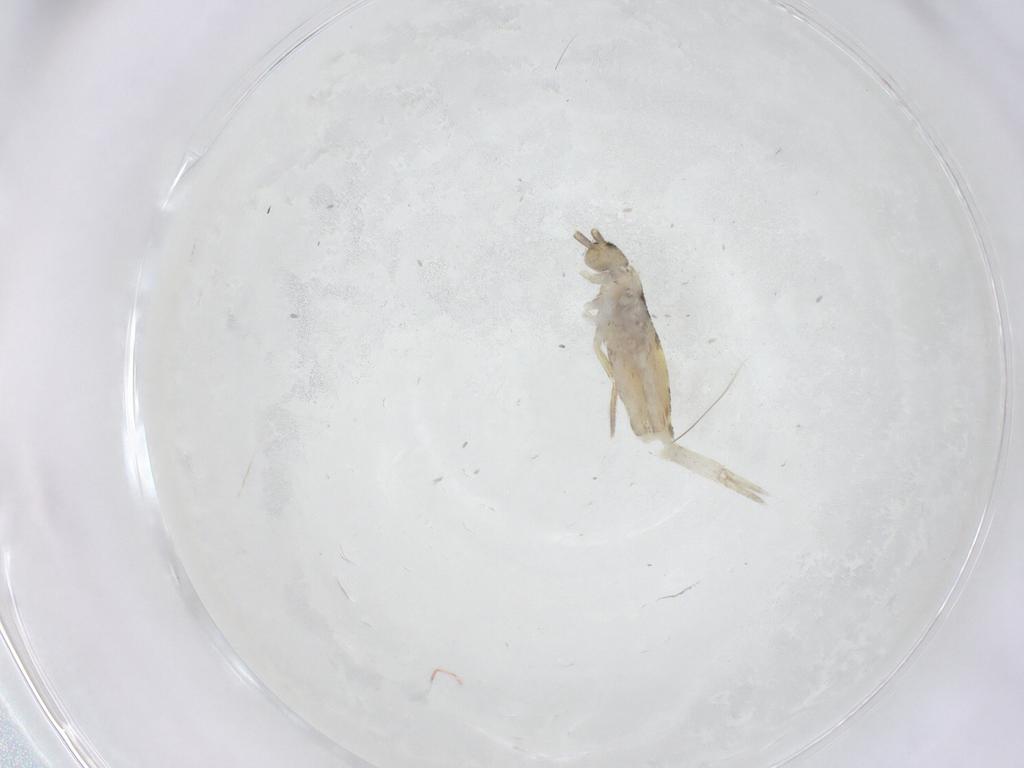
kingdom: Animalia
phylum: Arthropoda
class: Collembola
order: Entomobryomorpha
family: Entomobryidae
